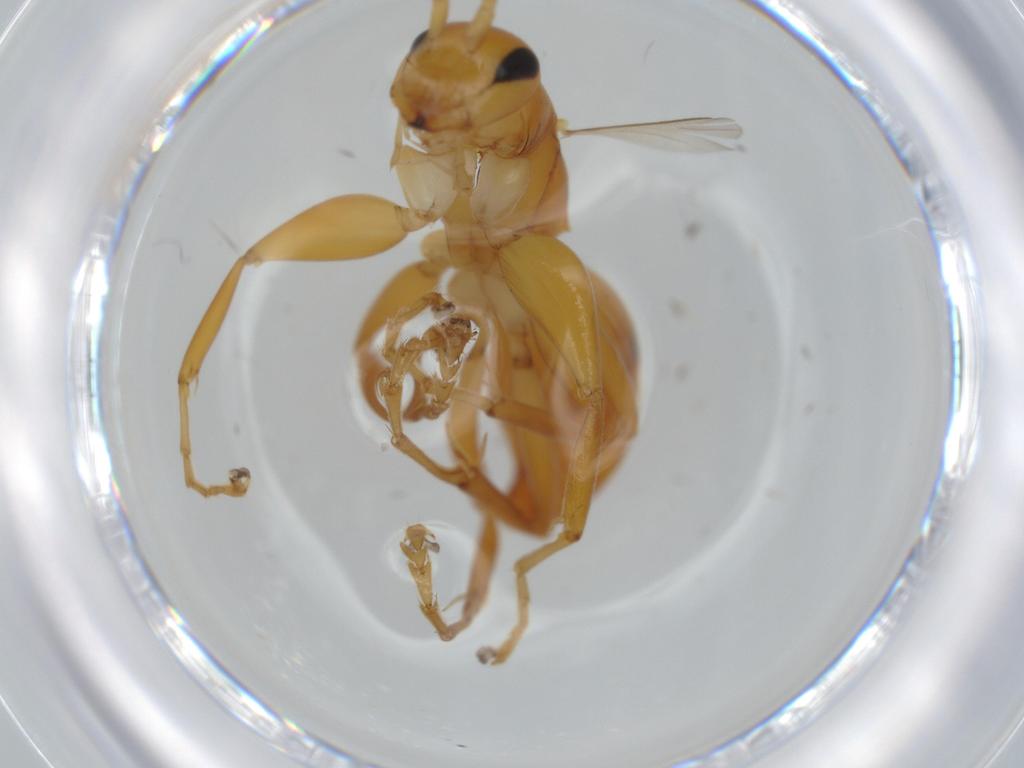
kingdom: Animalia
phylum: Arthropoda
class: Insecta
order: Hymenoptera
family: Rhopalosomatidae
